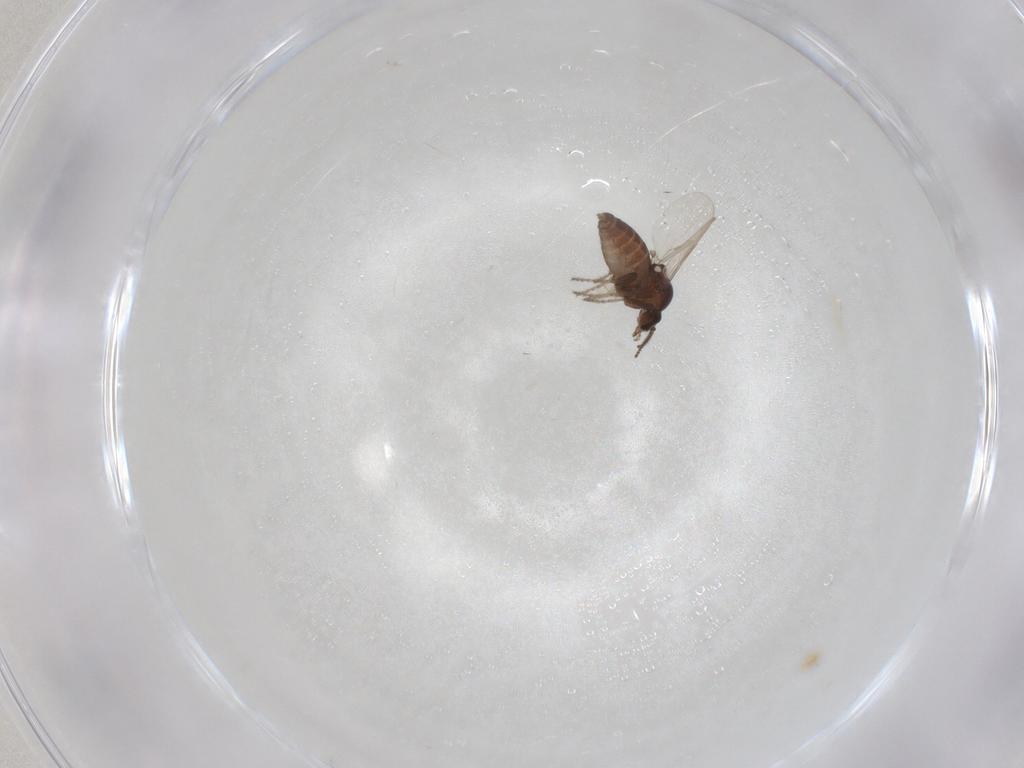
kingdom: Animalia
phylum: Arthropoda
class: Insecta
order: Diptera
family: Ceratopogonidae
